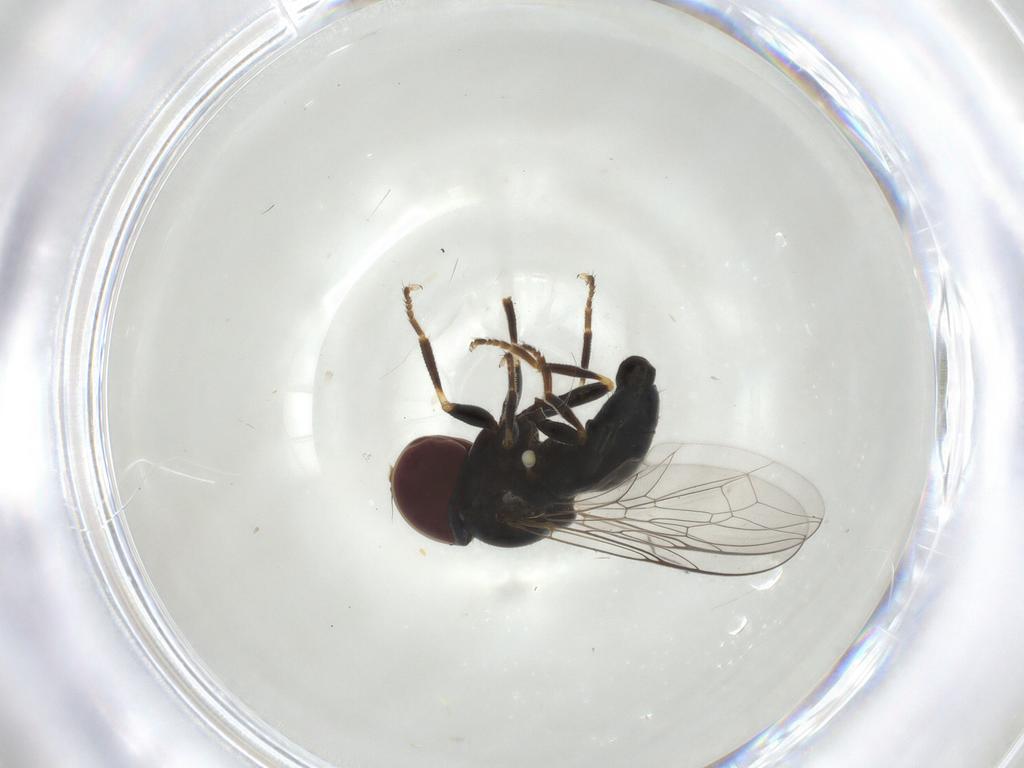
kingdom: Animalia
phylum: Arthropoda
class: Insecta
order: Diptera
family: Pipunculidae
